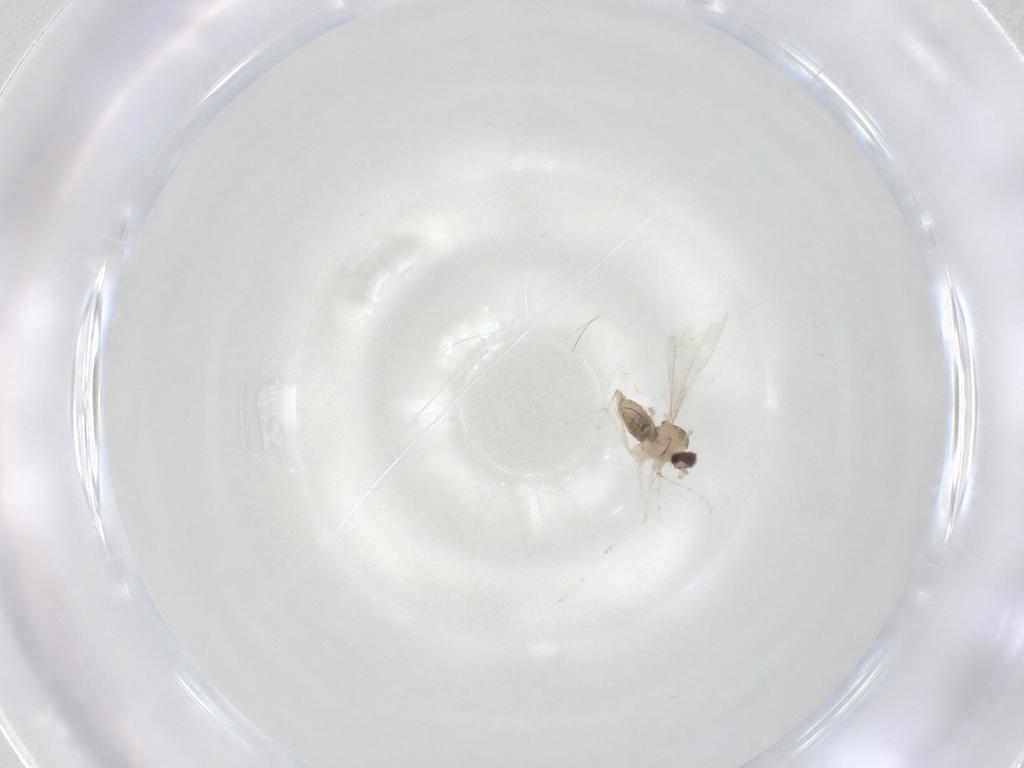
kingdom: Animalia
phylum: Arthropoda
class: Insecta
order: Diptera
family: Cecidomyiidae
